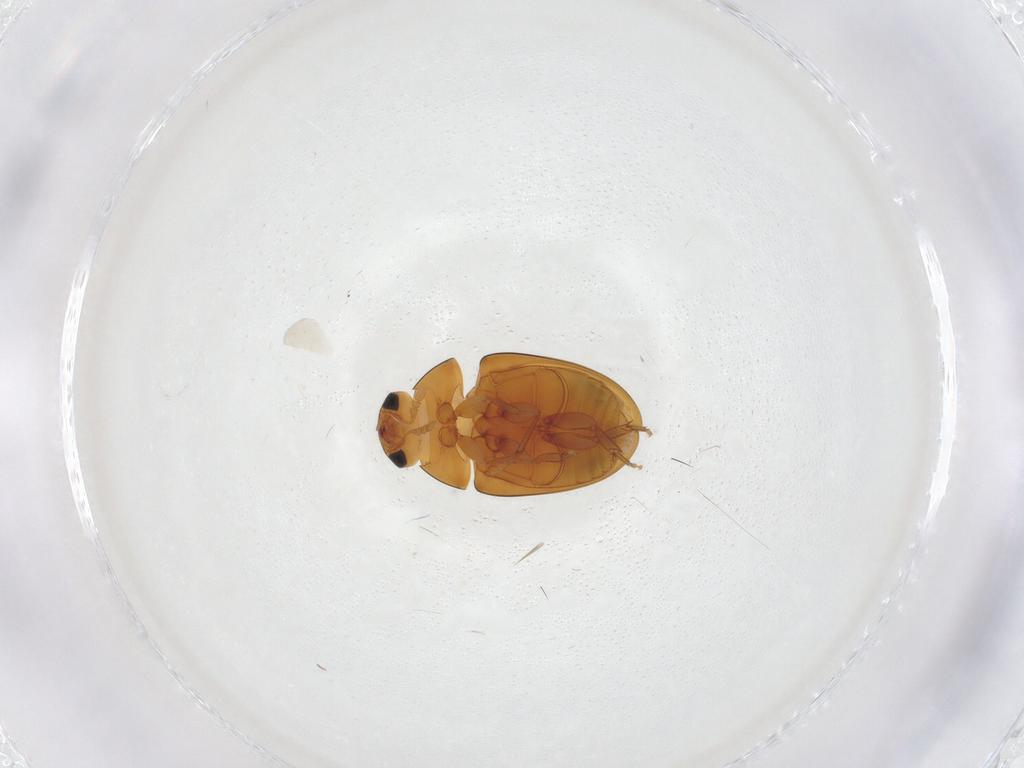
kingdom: Animalia
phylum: Arthropoda
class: Insecta
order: Coleoptera
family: Phalacridae
